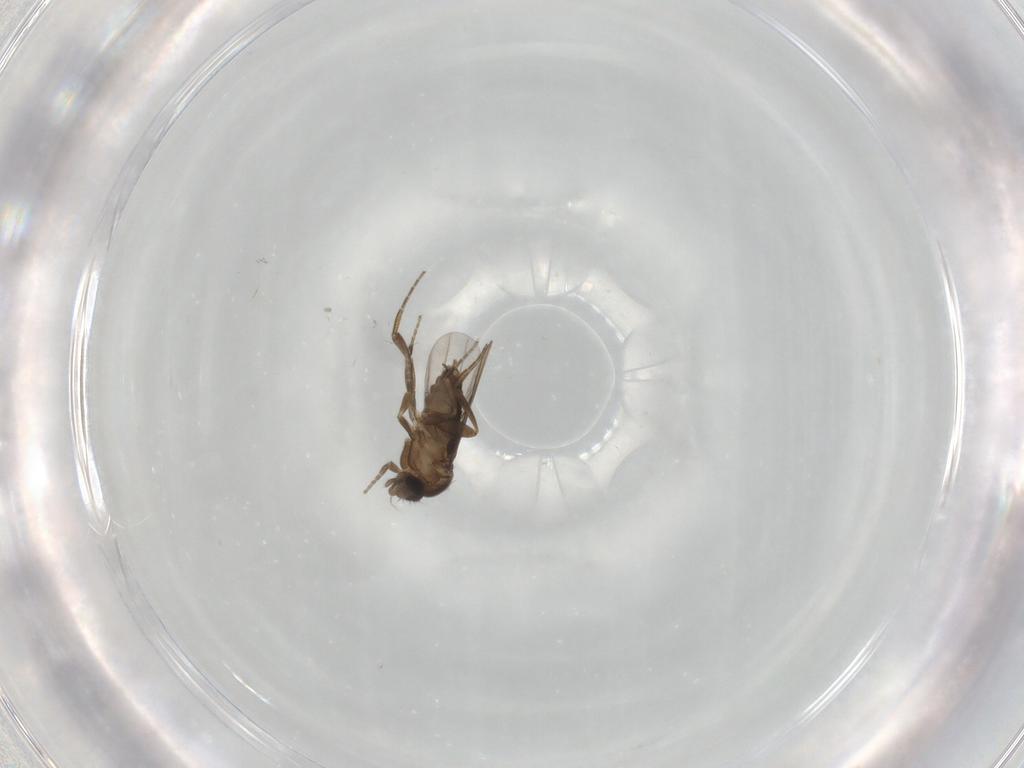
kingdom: Animalia
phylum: Arthropoda
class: Insecta
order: Diptera
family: Phoridae
